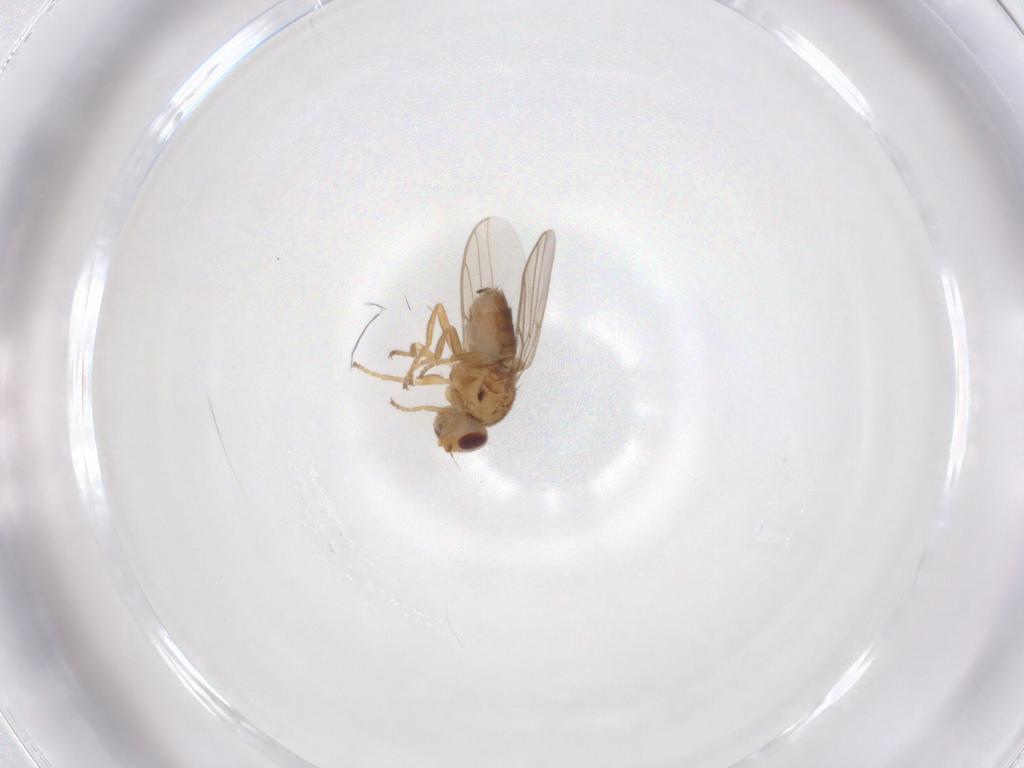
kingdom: Animalia
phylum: Arthropoda
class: Insecta
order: Diptera
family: Chloropidae
